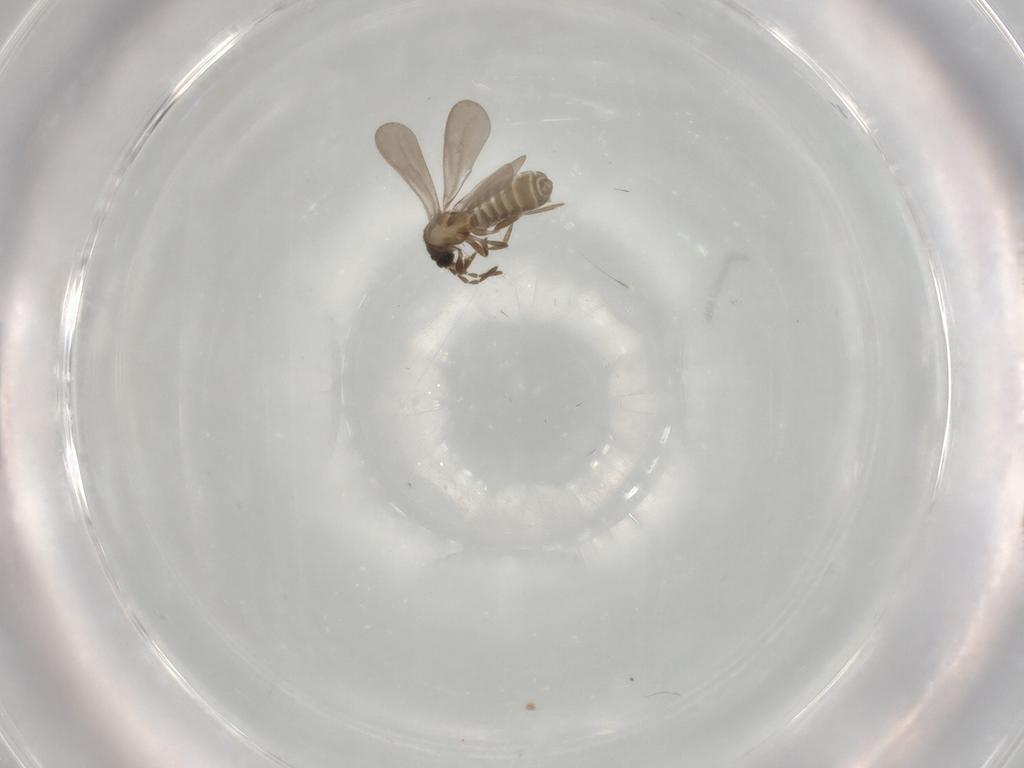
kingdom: Animalia
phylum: Arthropoda
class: Insecta
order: Hemiptera
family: Enicocephalidae
